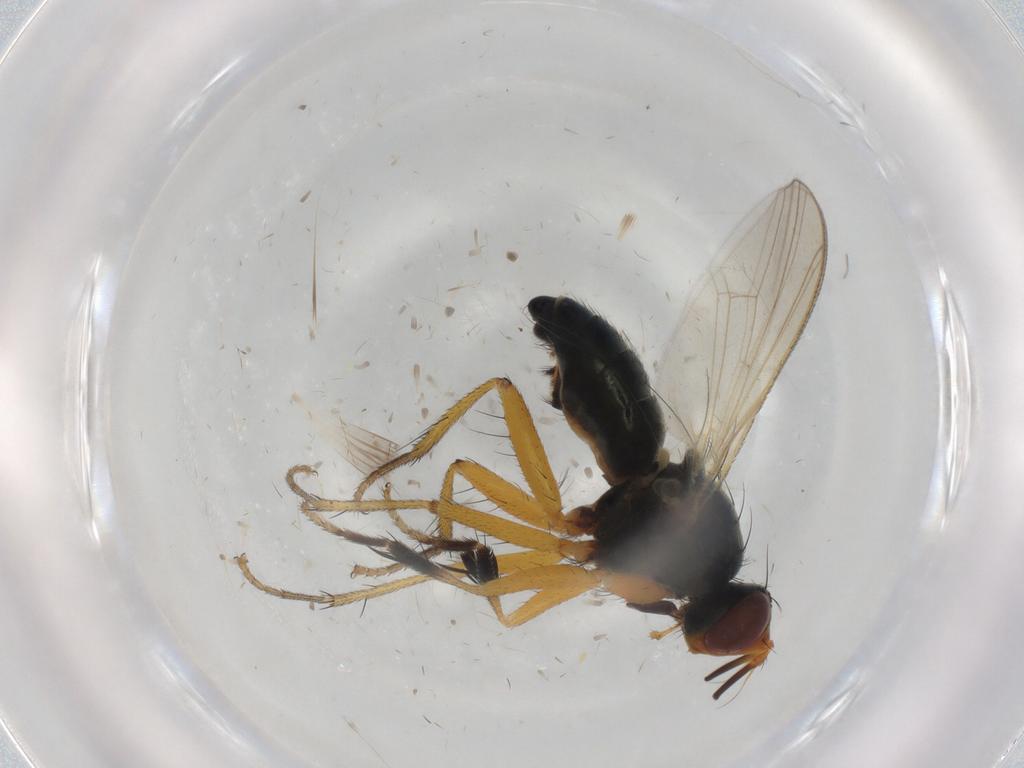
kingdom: Animalia
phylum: Arthropoda
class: Insecta
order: Diptera
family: Muscidae
